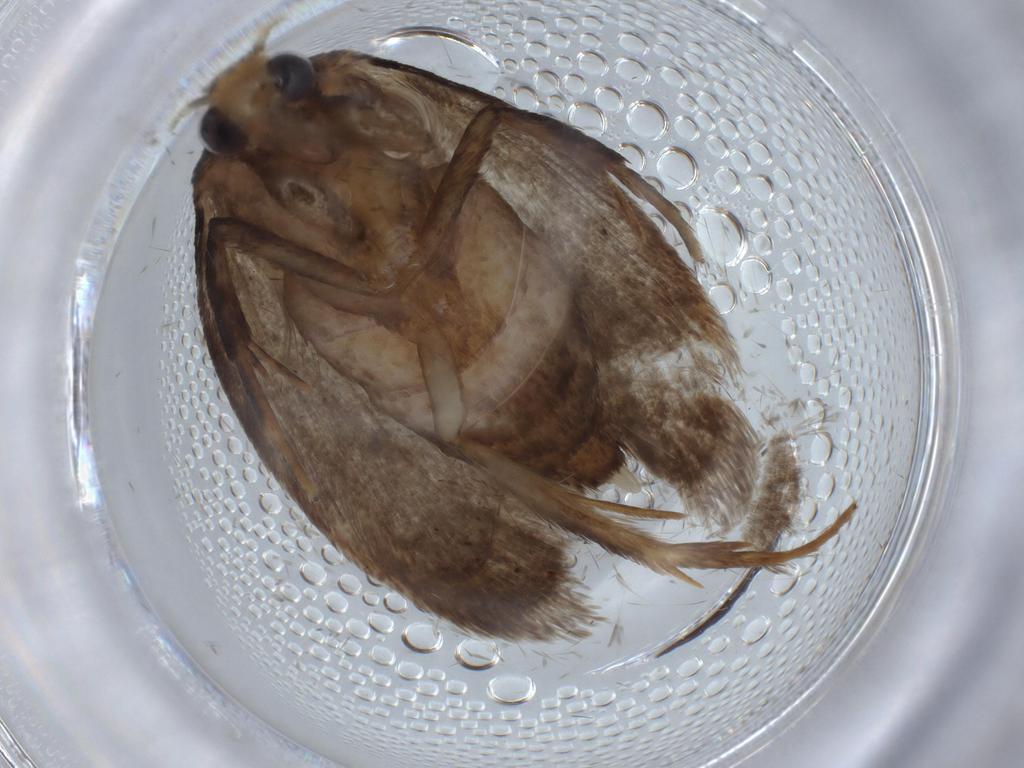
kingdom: Animalia
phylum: Arthropoda
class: Insecta
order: Lepidoptera
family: Oecophoridae
